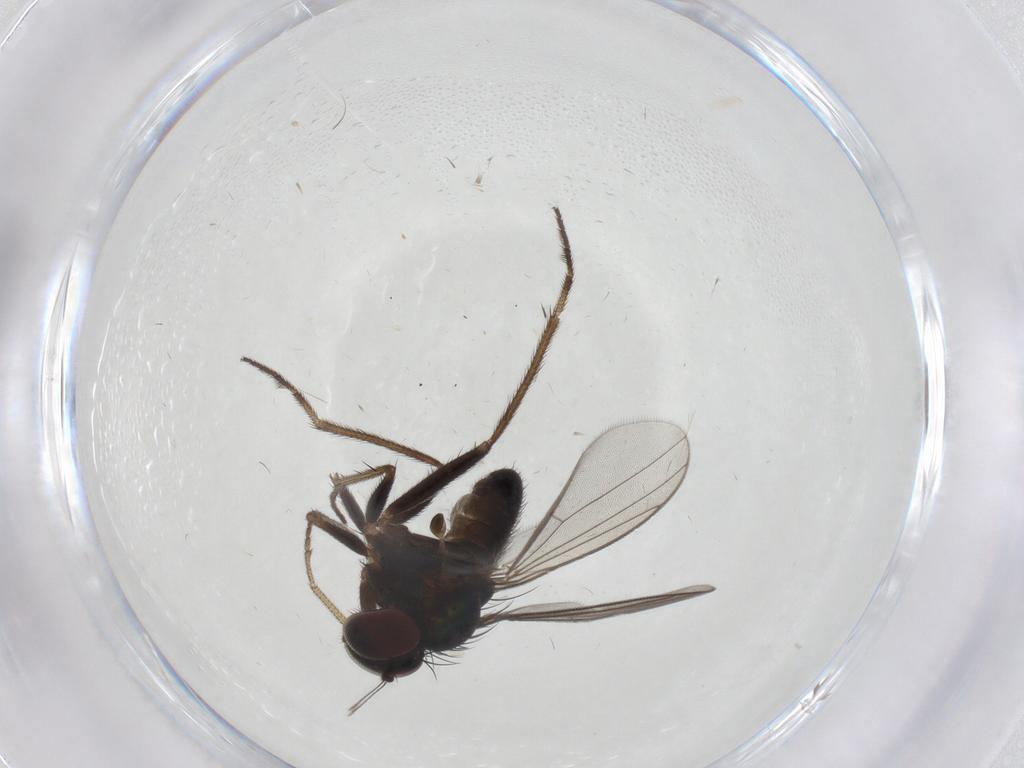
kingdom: Animalia
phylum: Arthropoda
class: Insecta
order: Diptera
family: Dolichopodidae
